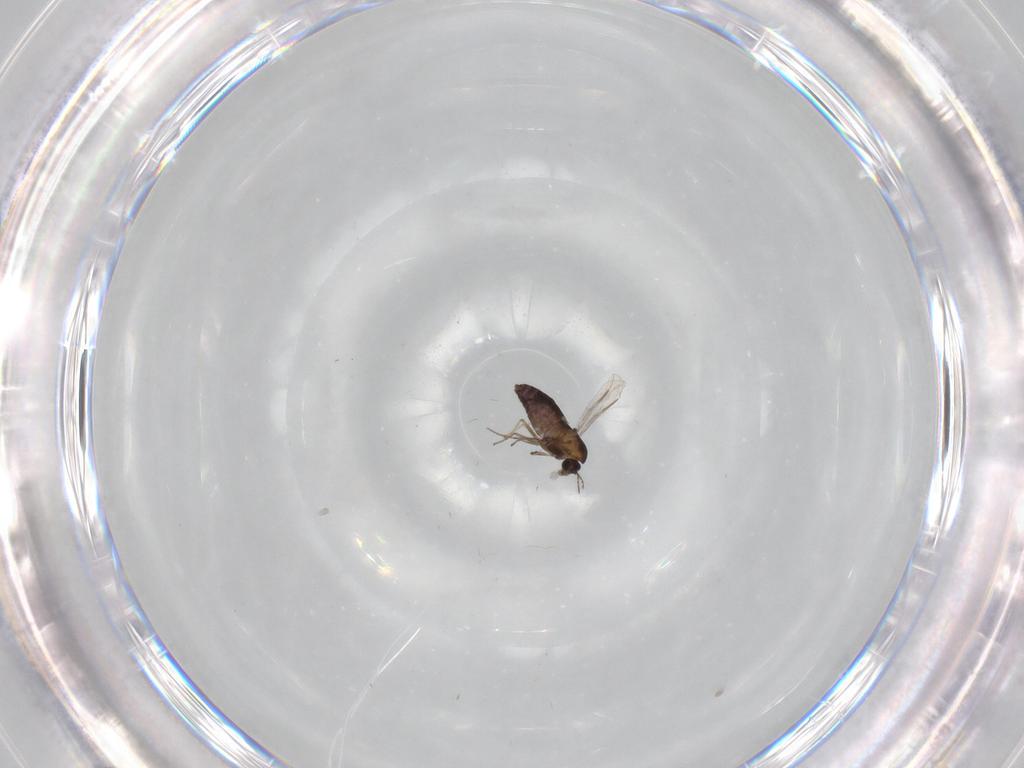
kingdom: Animalia
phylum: Arthropoda
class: Insecta
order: Diptera
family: Chironomidae
